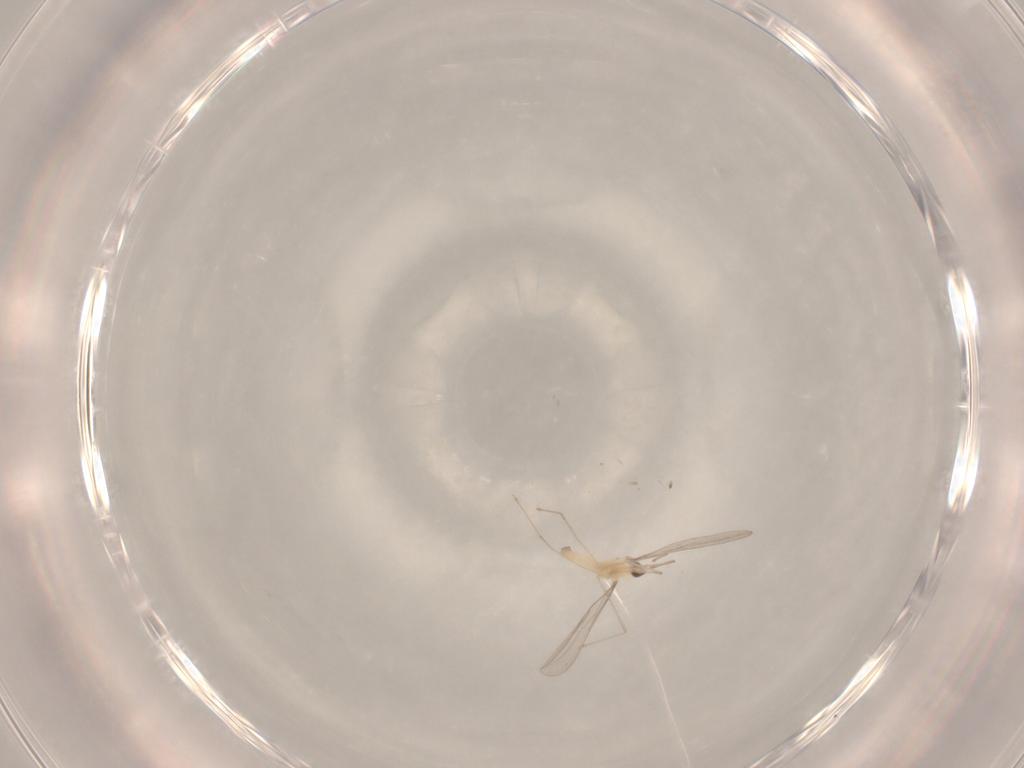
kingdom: Animalia
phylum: Arthropoda
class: Insecta
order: Diptera
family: Cecidomyiidae
